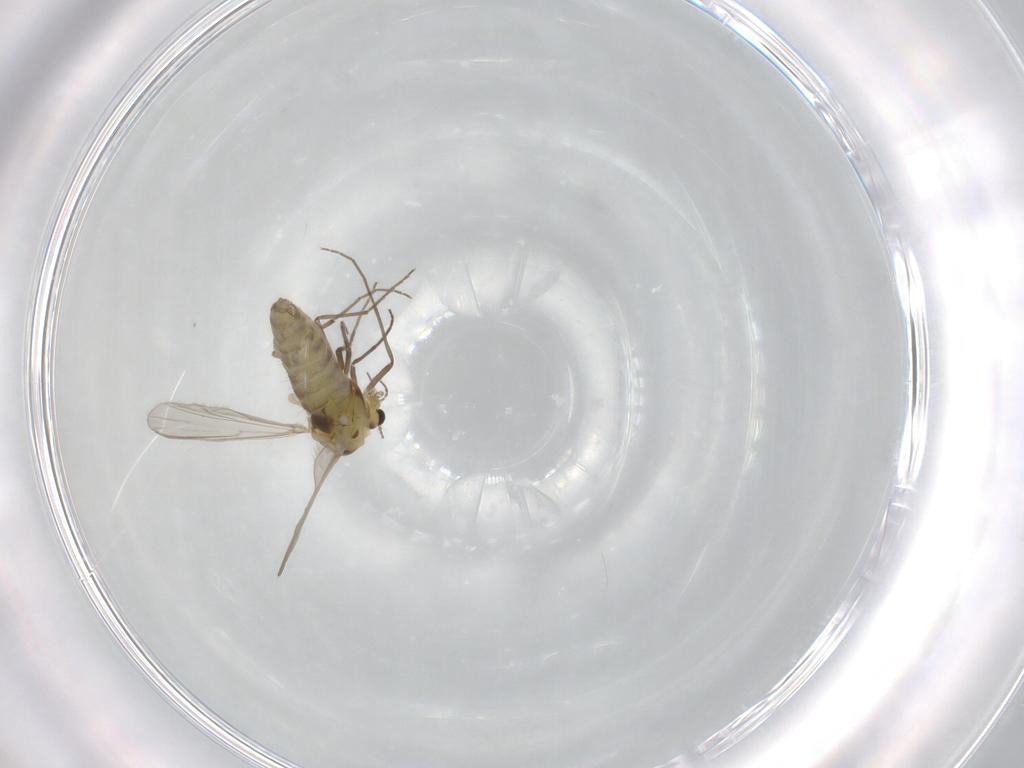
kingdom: Animalia
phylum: Arthropoda
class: Insecta
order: Diptera
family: Chironomidae
